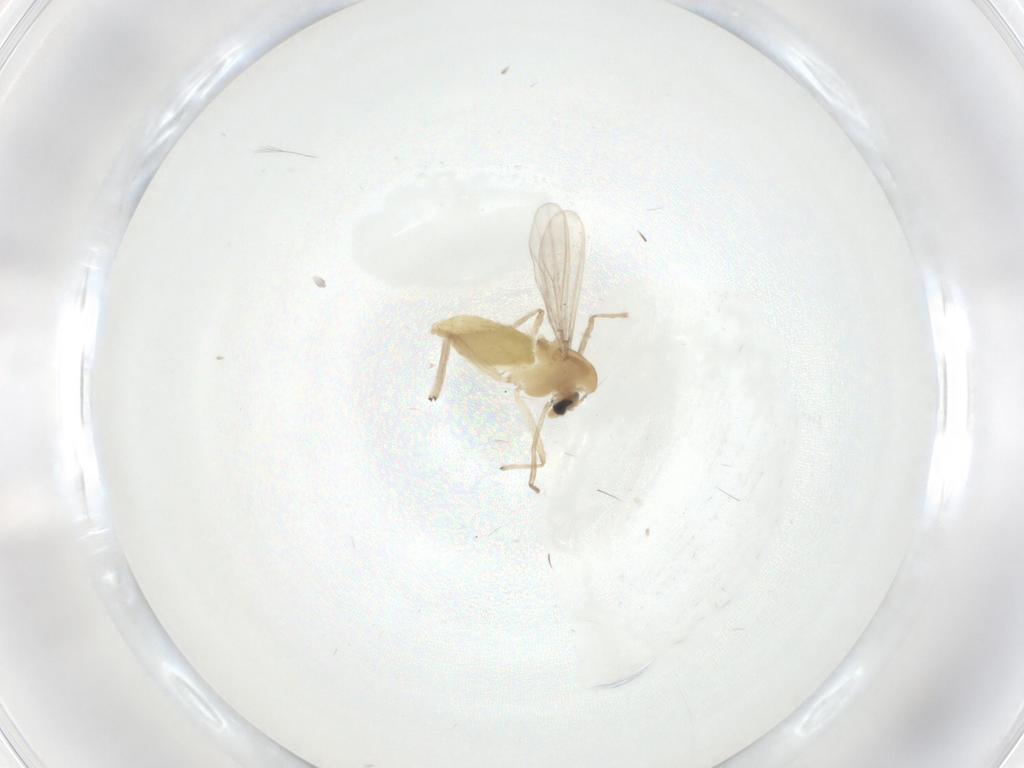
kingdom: Animalia
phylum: Arthropoda
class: Insecta
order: Diptera
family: Chironomidae
